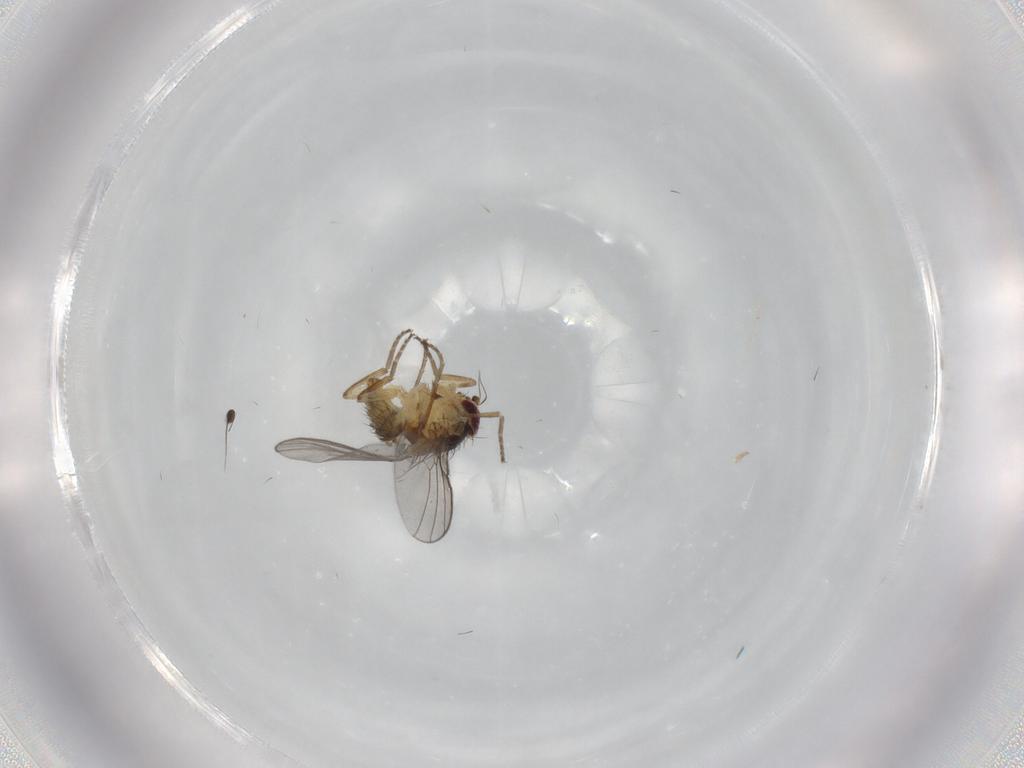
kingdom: Animalia
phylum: Arthropoda
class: Insecta
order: Diptera
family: Agromyzidae
